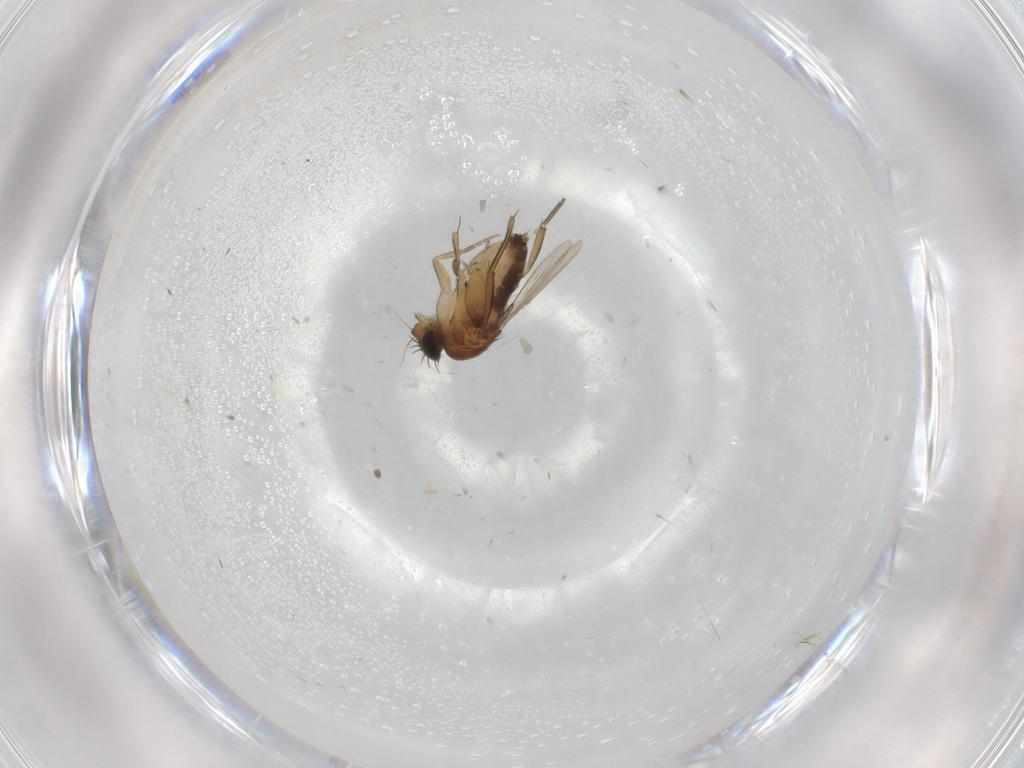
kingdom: Animalia
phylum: Arthropoda
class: Insecta
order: Diptera
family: Phoridae
